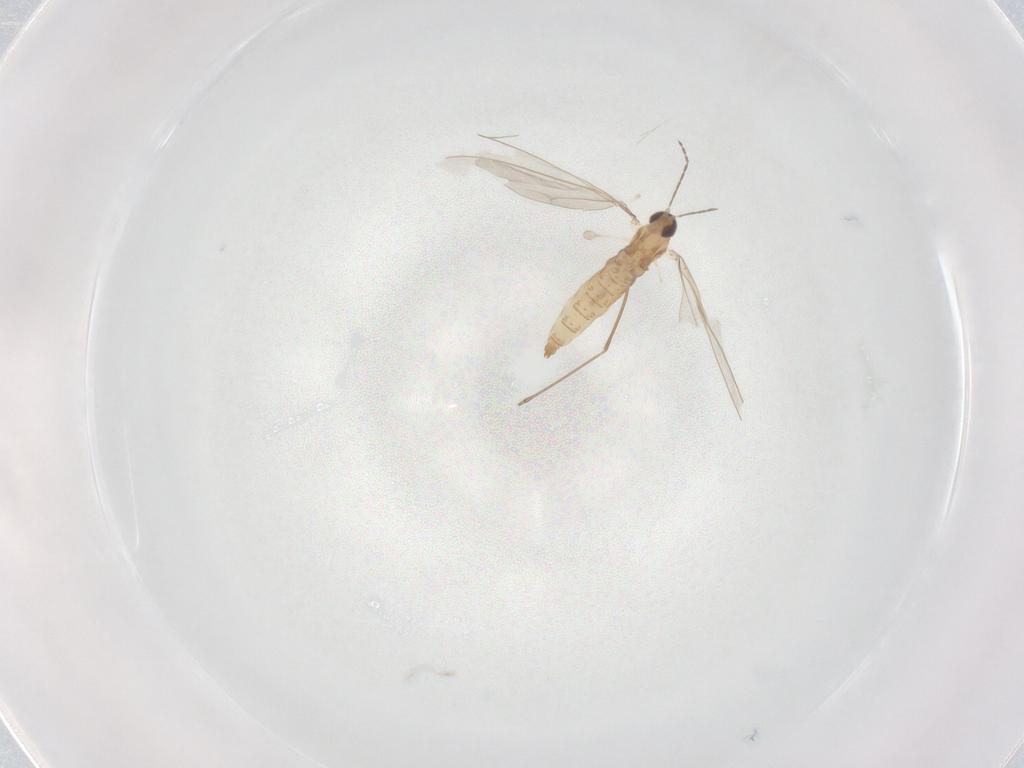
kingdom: Animalia
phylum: Arthropoda
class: Insecta
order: Diptera
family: Cecidomyiidae
